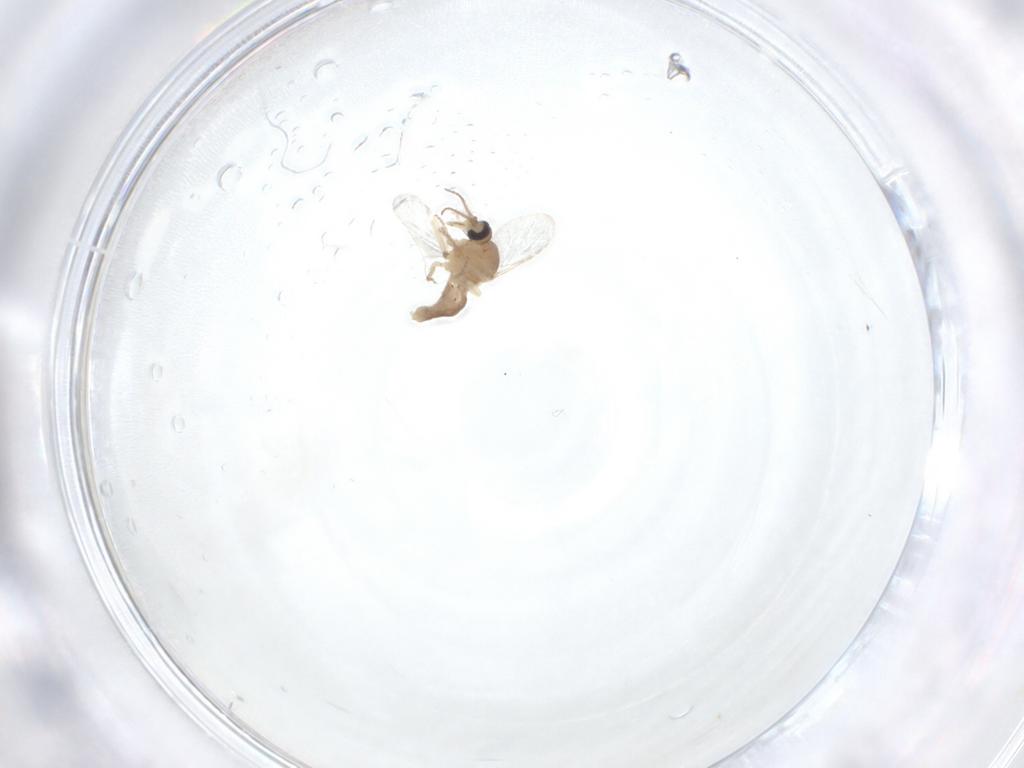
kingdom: Animalia
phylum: Arthropoda
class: Insecta
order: Diptera
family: Ceratopogonidae
